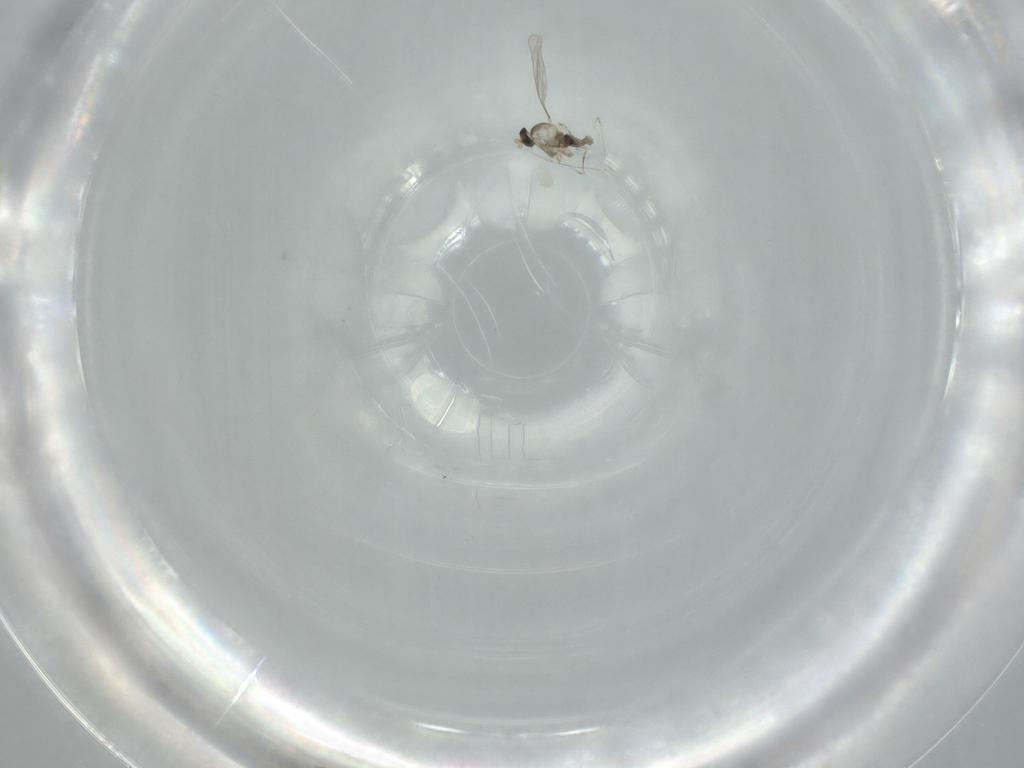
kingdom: Animalia
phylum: Arthropoda
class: Insecta
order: Diptera
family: Cecidomyiidae
